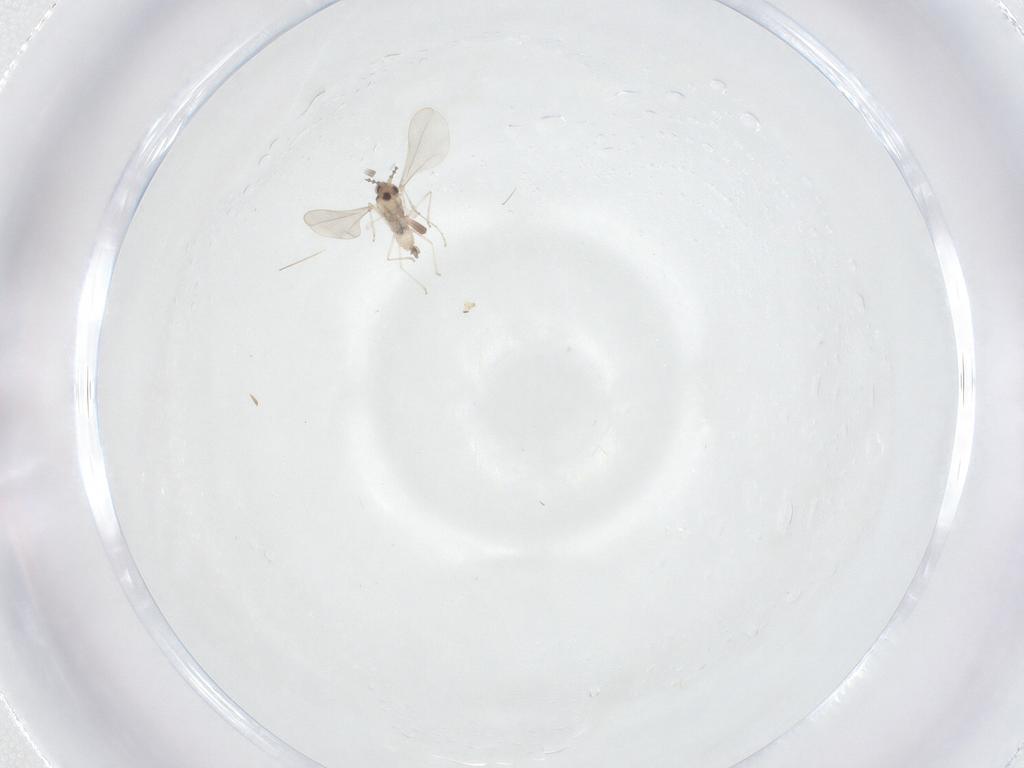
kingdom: Animalia
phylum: Arthropoda
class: Insecta
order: Diptera
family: Cecidomyiidae
